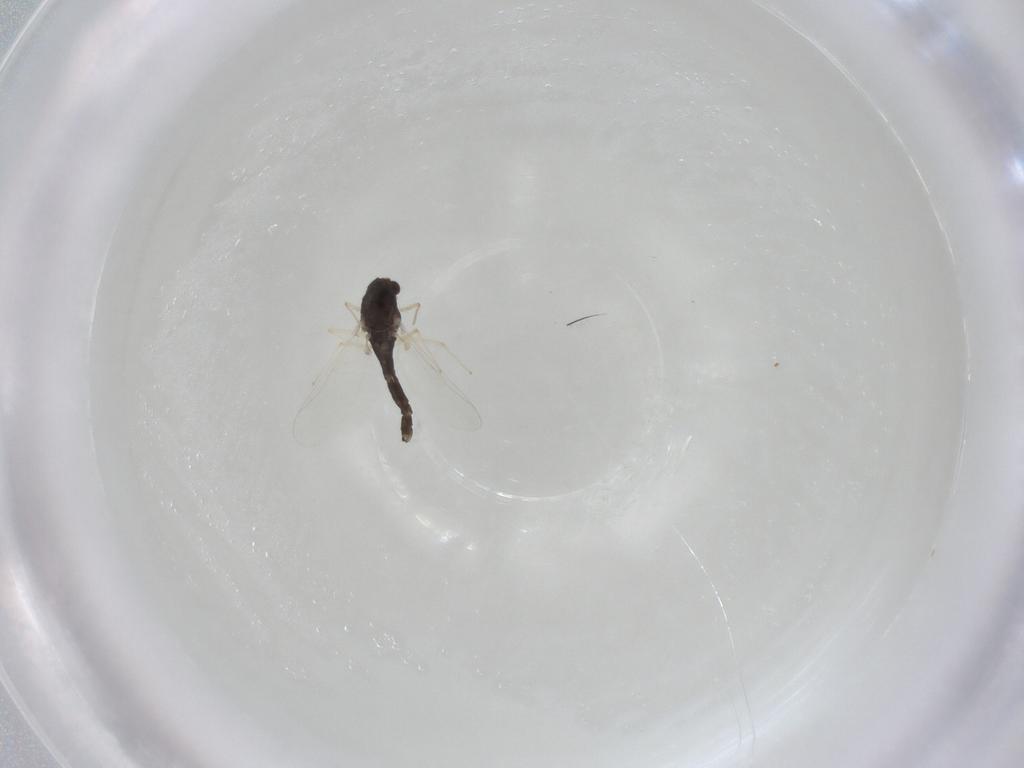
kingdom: Animalia
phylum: Arthropoda
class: Insecta
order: Diptera
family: Chironomidae
